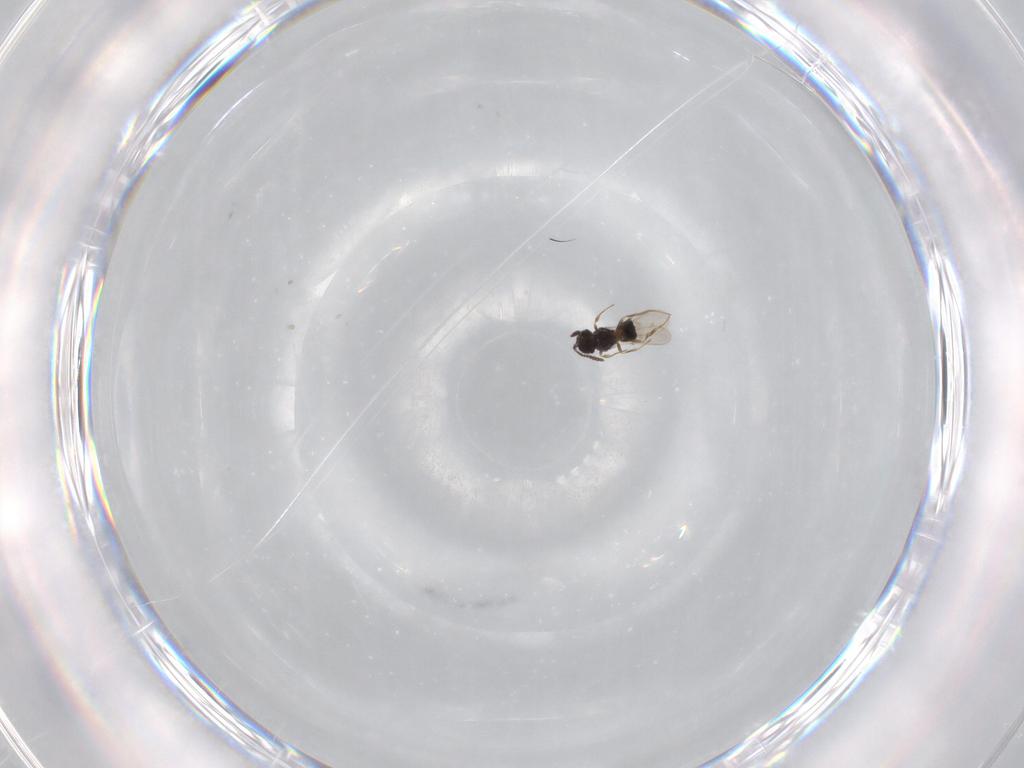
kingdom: Animalia
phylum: Arthropoda
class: Insecta
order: Hymenoptera
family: Scelionidae
